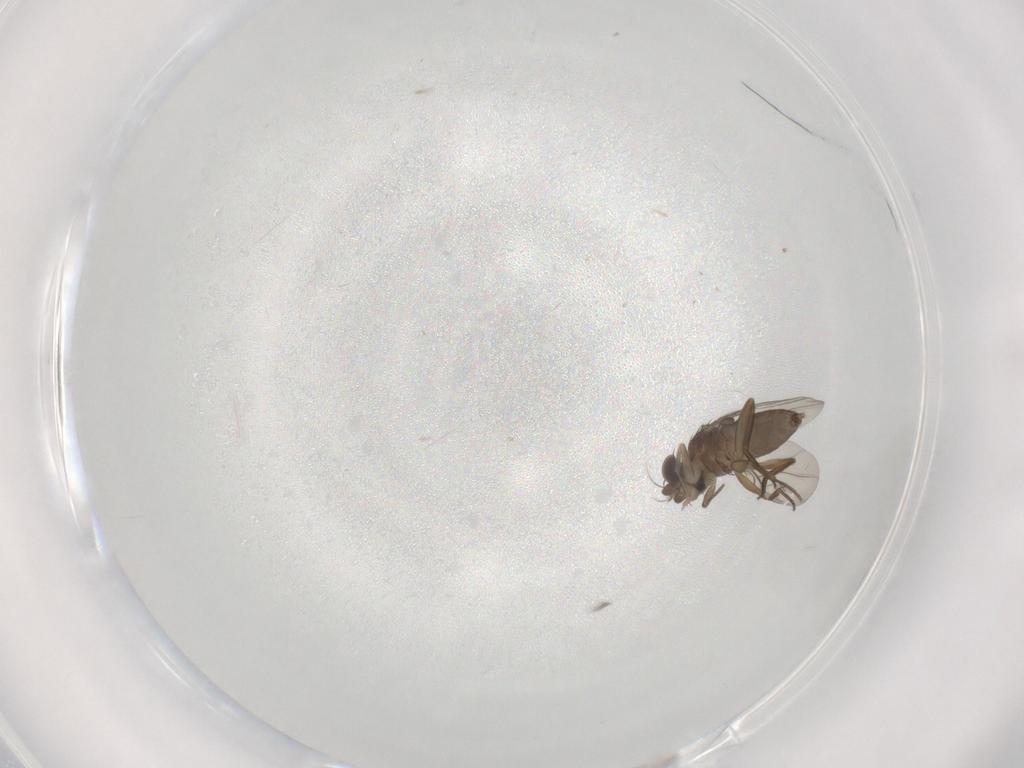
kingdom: Animalia
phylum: Arthropoda
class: Insecta
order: Diptera
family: Phoridae
